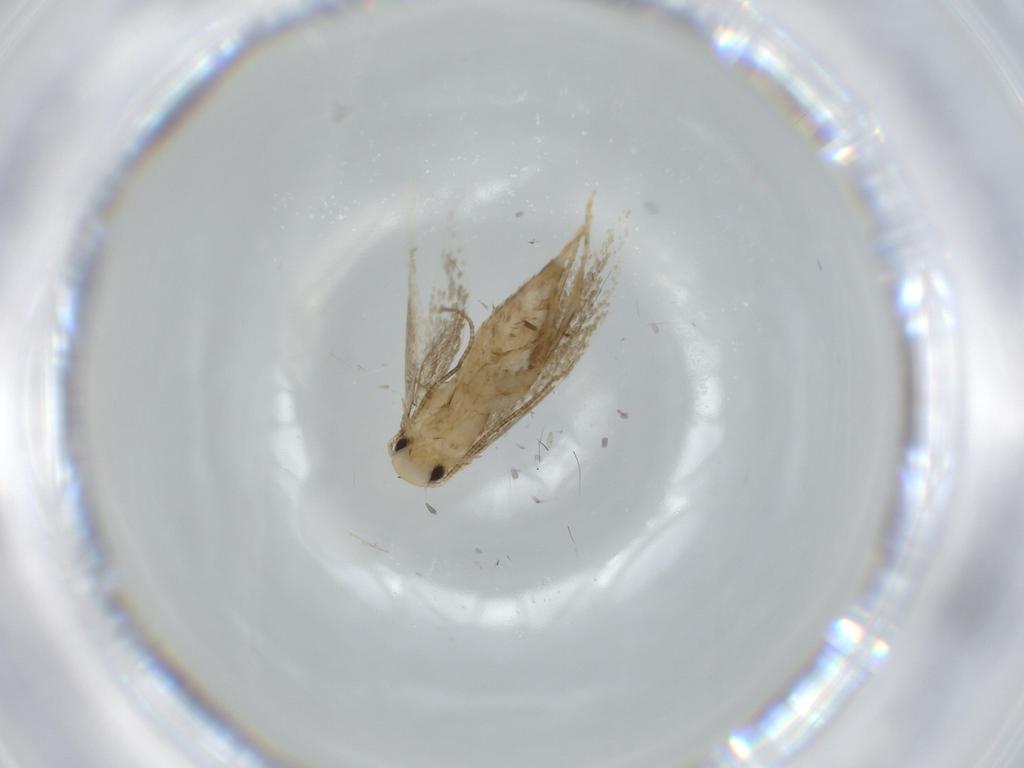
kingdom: Animalia
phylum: Arthropoda
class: Insecta
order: Lepidoptera
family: Tineidae
